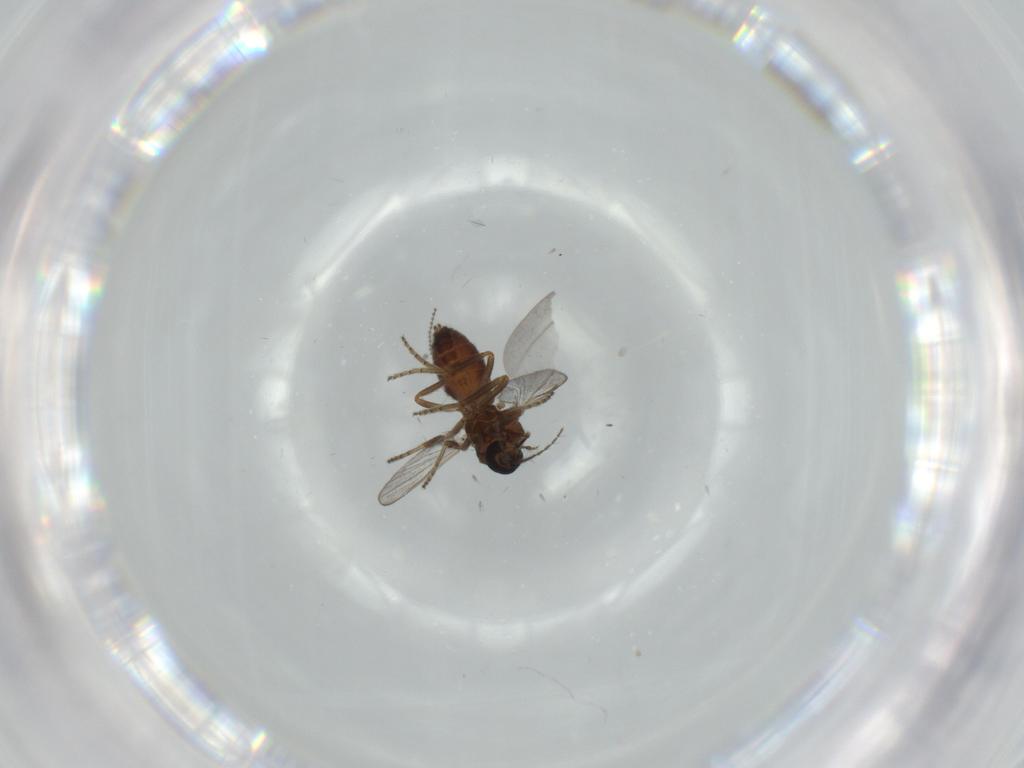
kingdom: Animalia
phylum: Arthropoda
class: Insecta
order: Diptera
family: Ceratopogonidae
